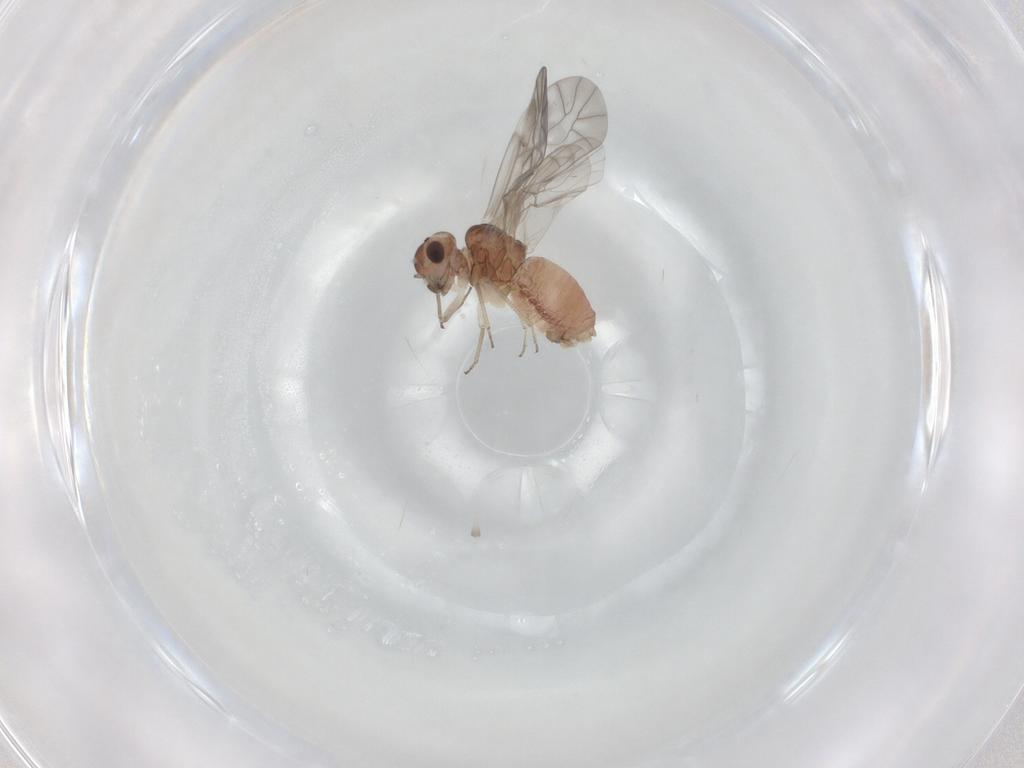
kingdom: Animalia
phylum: Arthropoda
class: Insecta
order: Psocodea
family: Peripsocidae
